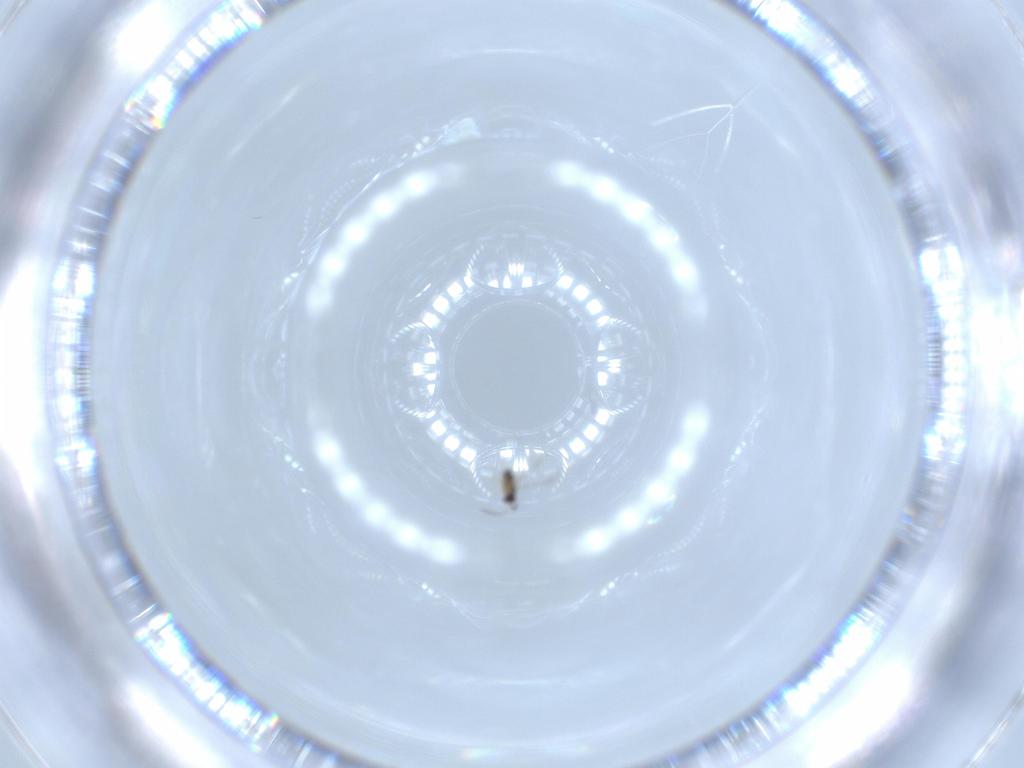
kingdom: Animalia
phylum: Arthropoda
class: Insecta
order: Hymenoptera
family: Mymaridae
